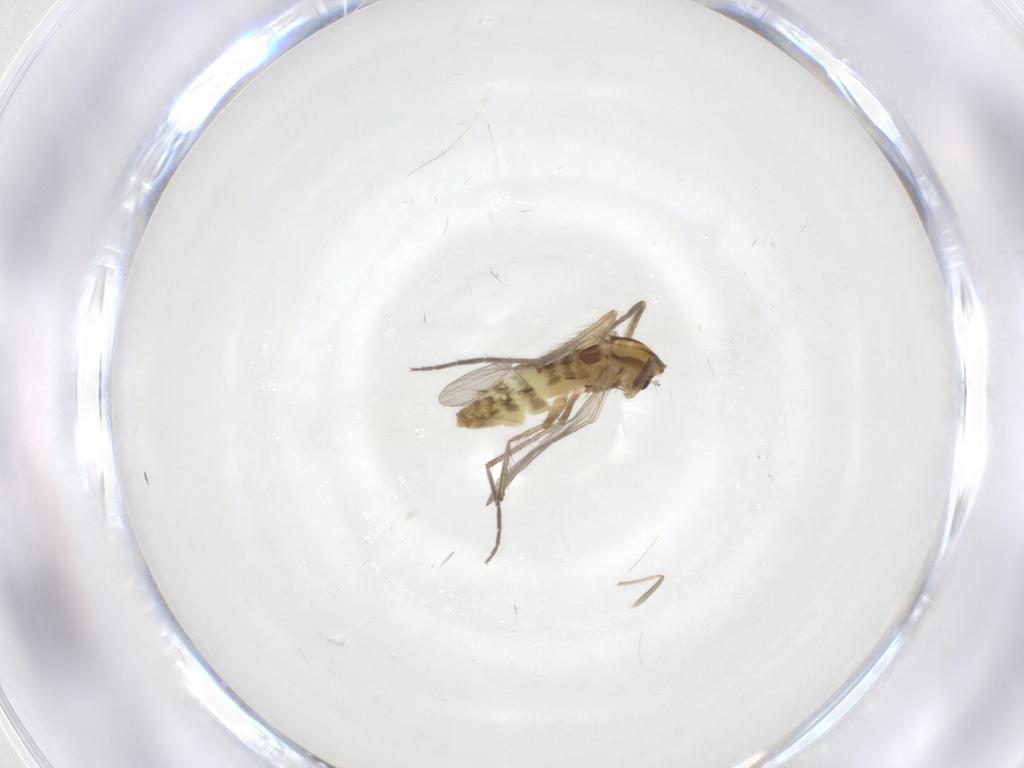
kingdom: Animalia
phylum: Arthropoda
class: Insecta
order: Diptera
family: Chironomidae
